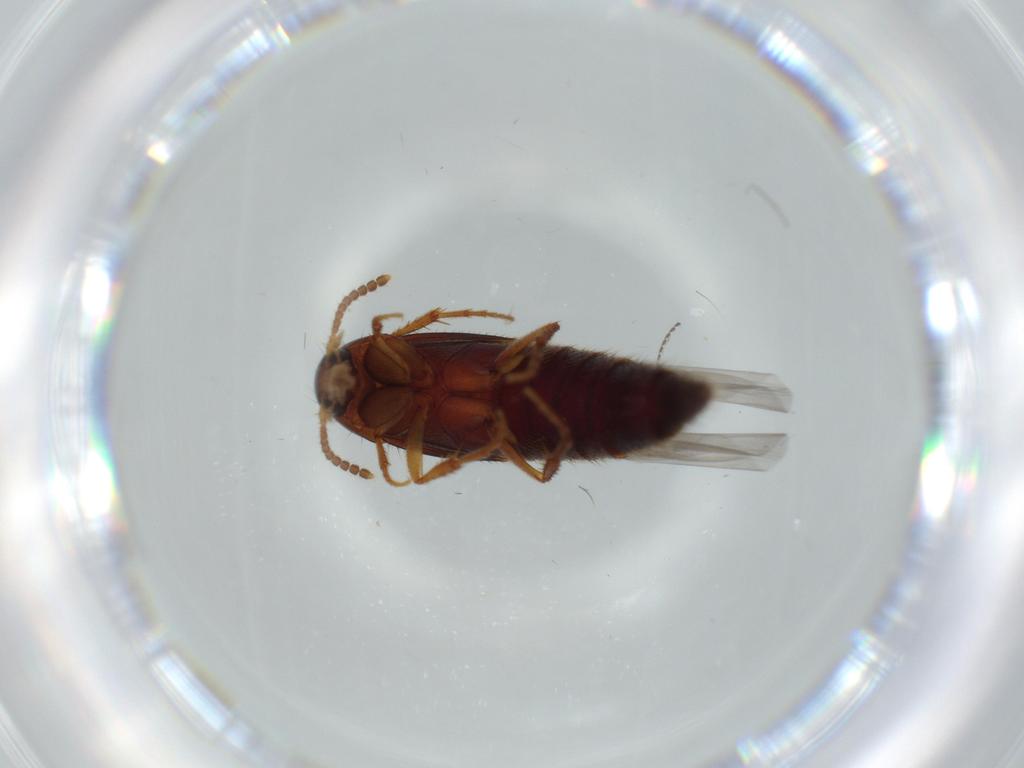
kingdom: Animalia
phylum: Arthropoda
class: Insecta
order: Coleoptera
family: Staphylinidae
